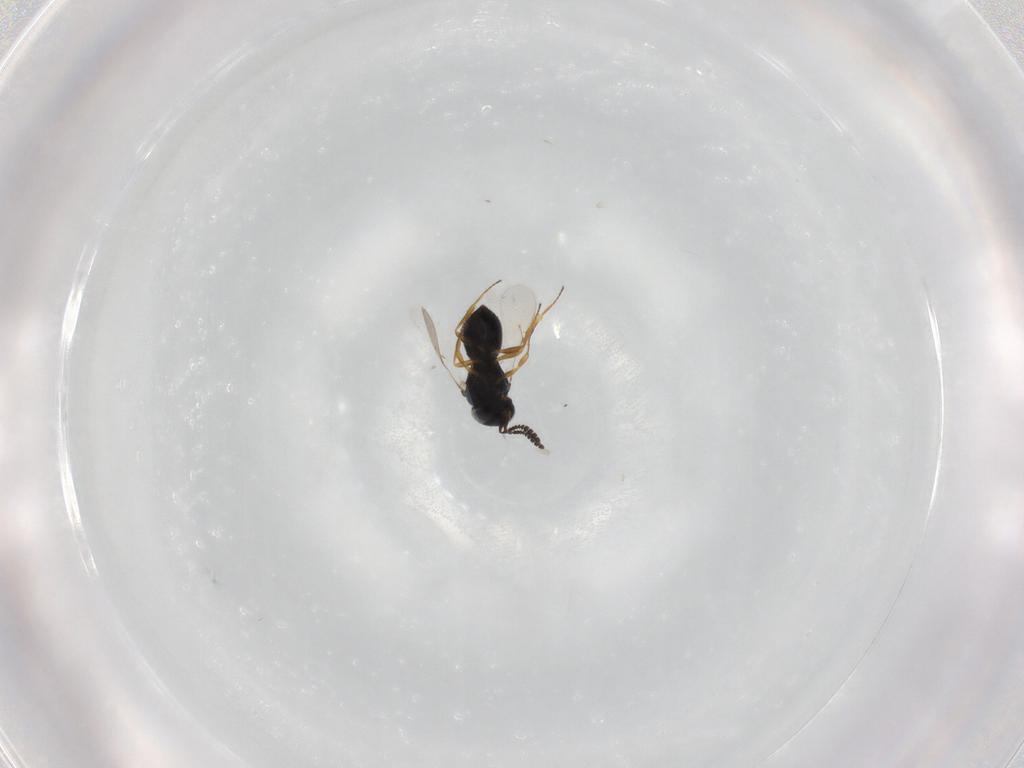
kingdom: Animalia
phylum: Arthropoda
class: Insecta
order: Hymenoptera
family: Scelionidae
